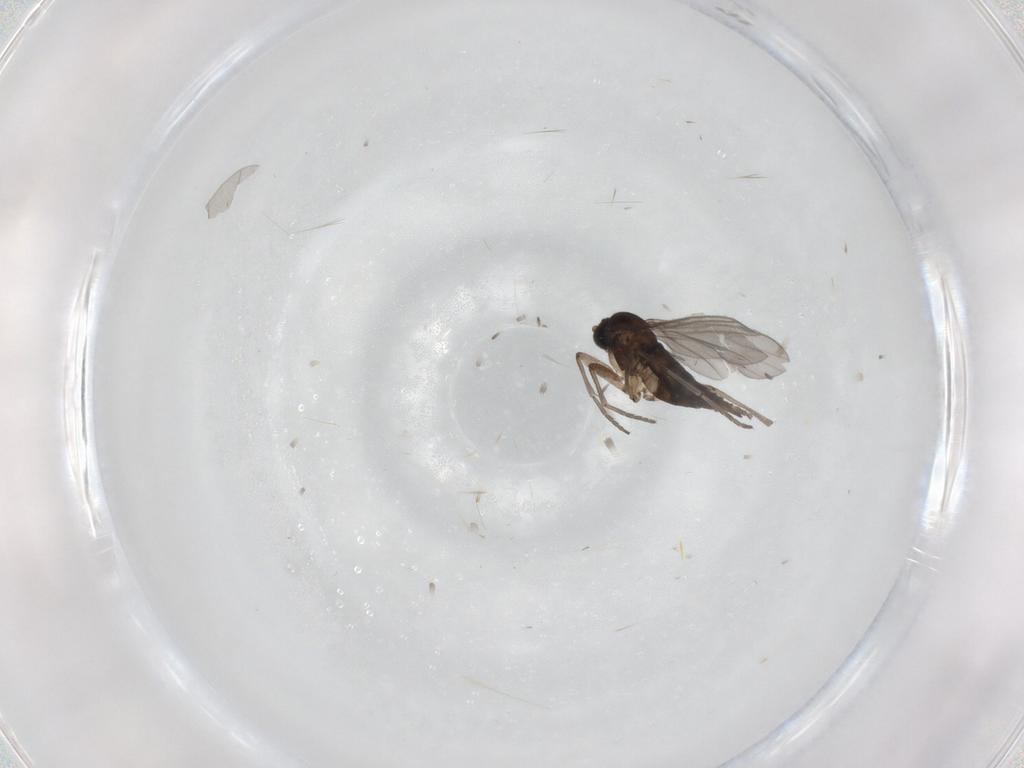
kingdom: Animalia
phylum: Arthropoda
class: Insecta
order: Diptera
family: Sciaridae
